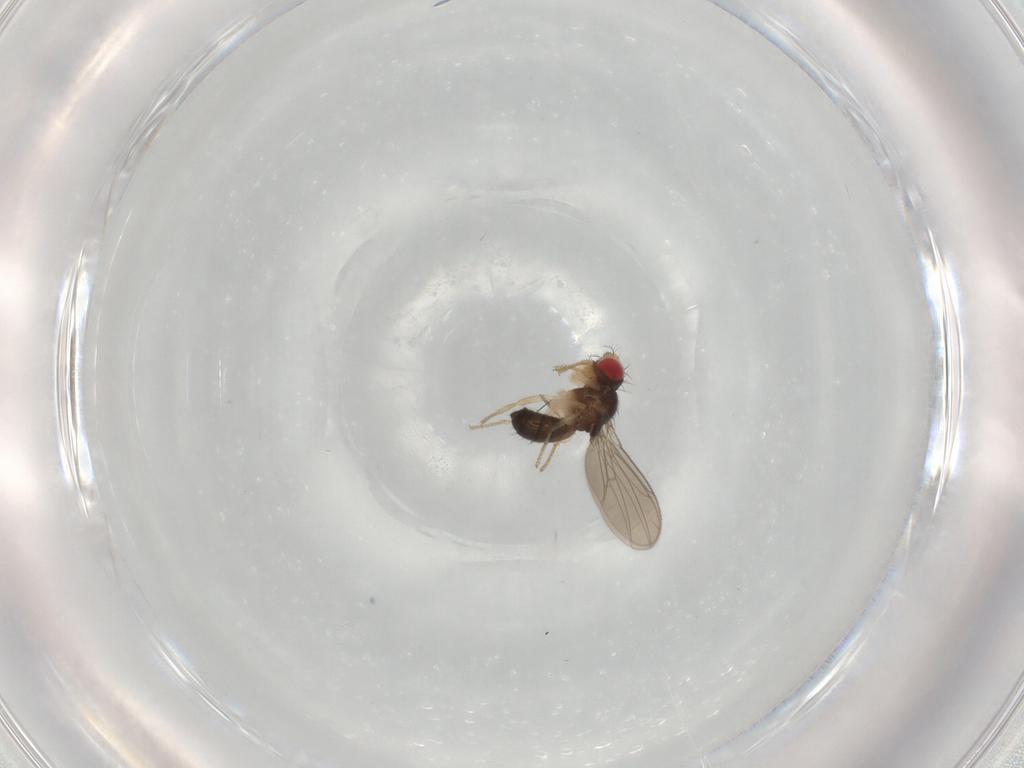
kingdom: Animalia
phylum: Arthropoda
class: Insecta
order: Diptera
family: Drosophilidae
